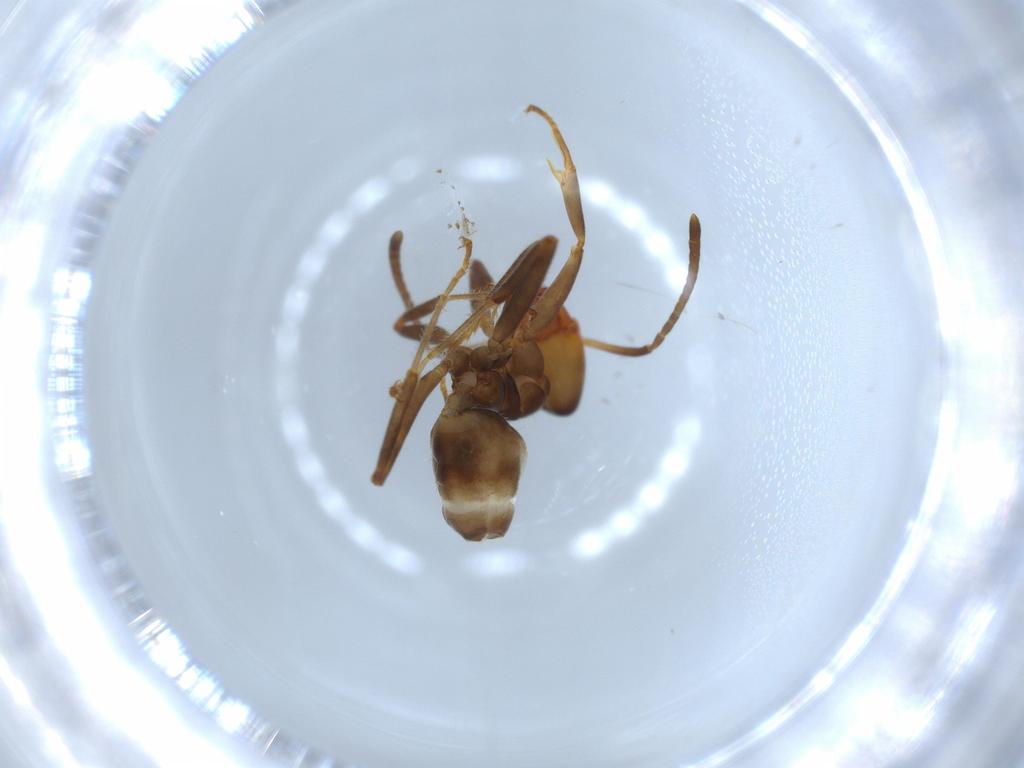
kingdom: Animalia
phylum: Arthropoda
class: Insecta
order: Hymenoptera
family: Formicidae
